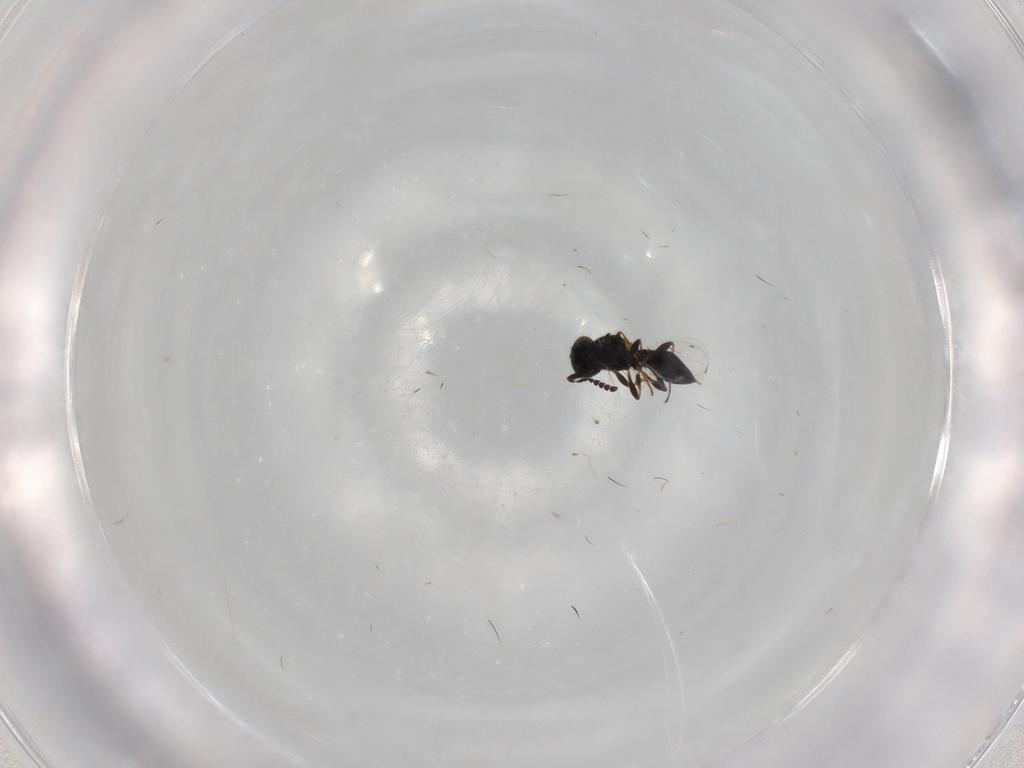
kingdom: Animalia
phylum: Arthropoda
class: Insecta
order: Hymenoptera
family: Platygastridae
